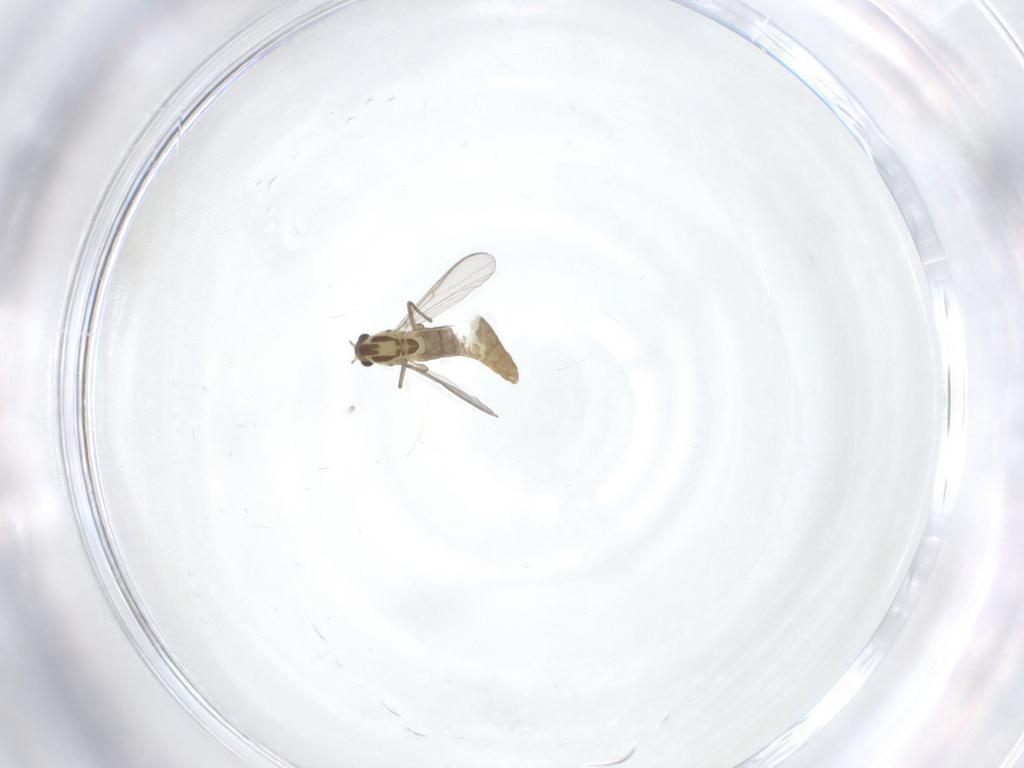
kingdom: Animalia
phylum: Arthropoda
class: Insecta
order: Diptera
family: Chironomidae
